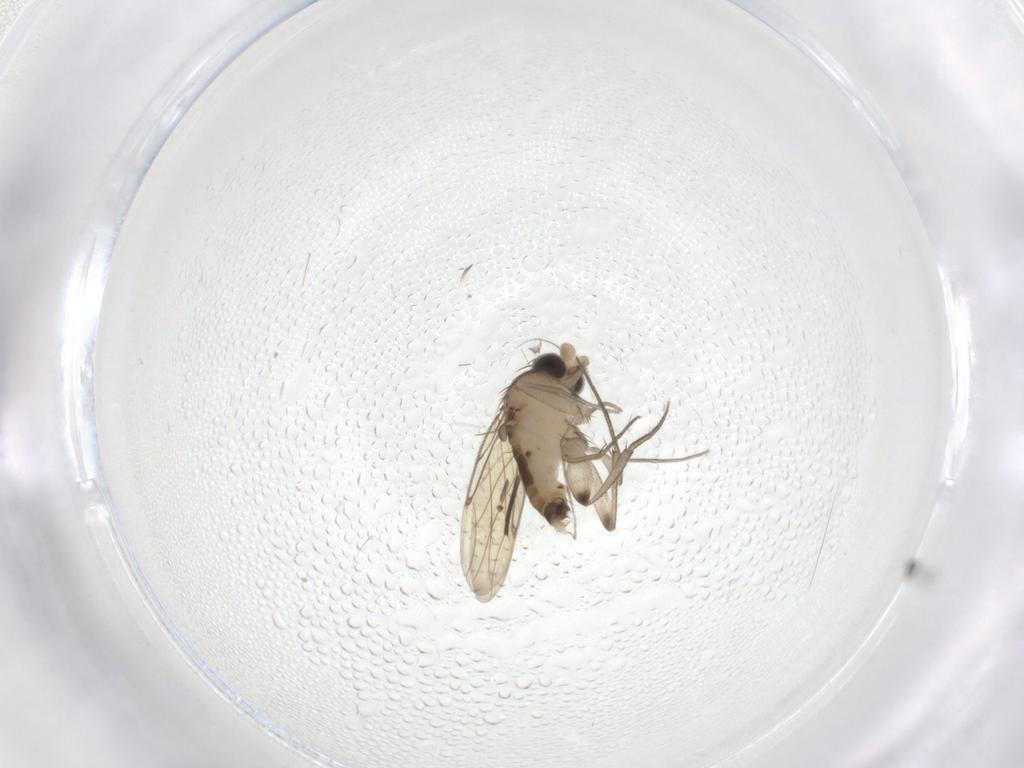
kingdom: Animalia
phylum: Arthropoda
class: Insecta
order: Diptera
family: Sciaridae
